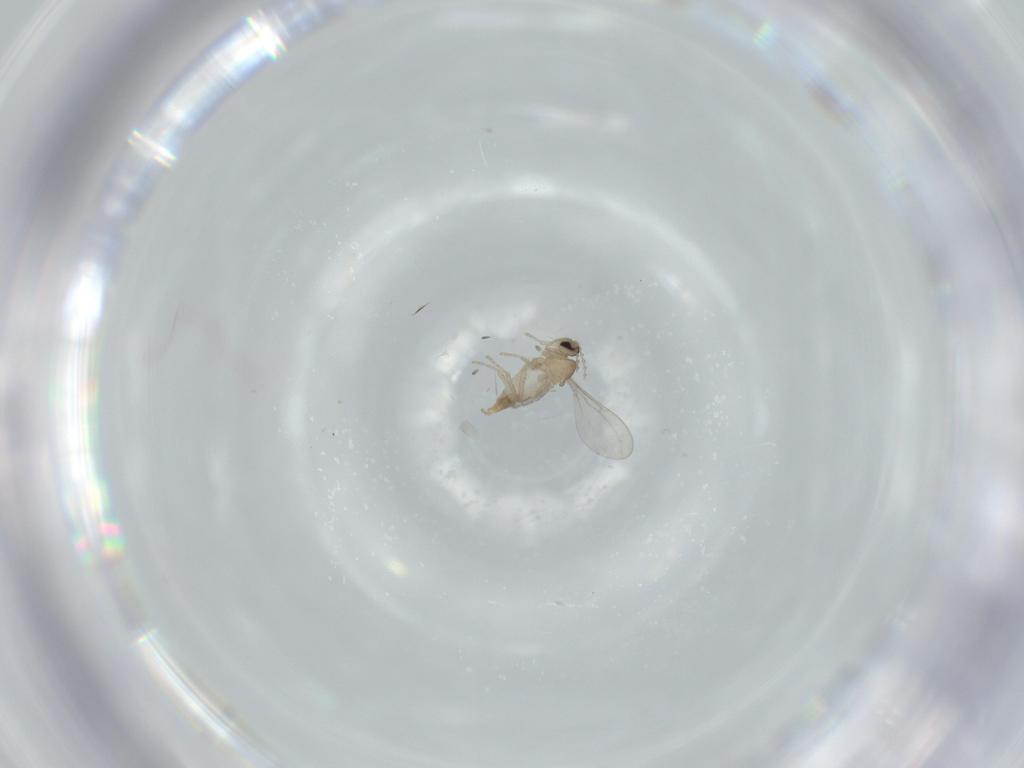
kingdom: Animalia
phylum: Arthropoda
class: Insecta
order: Diptera
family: Cecidomyiidae
